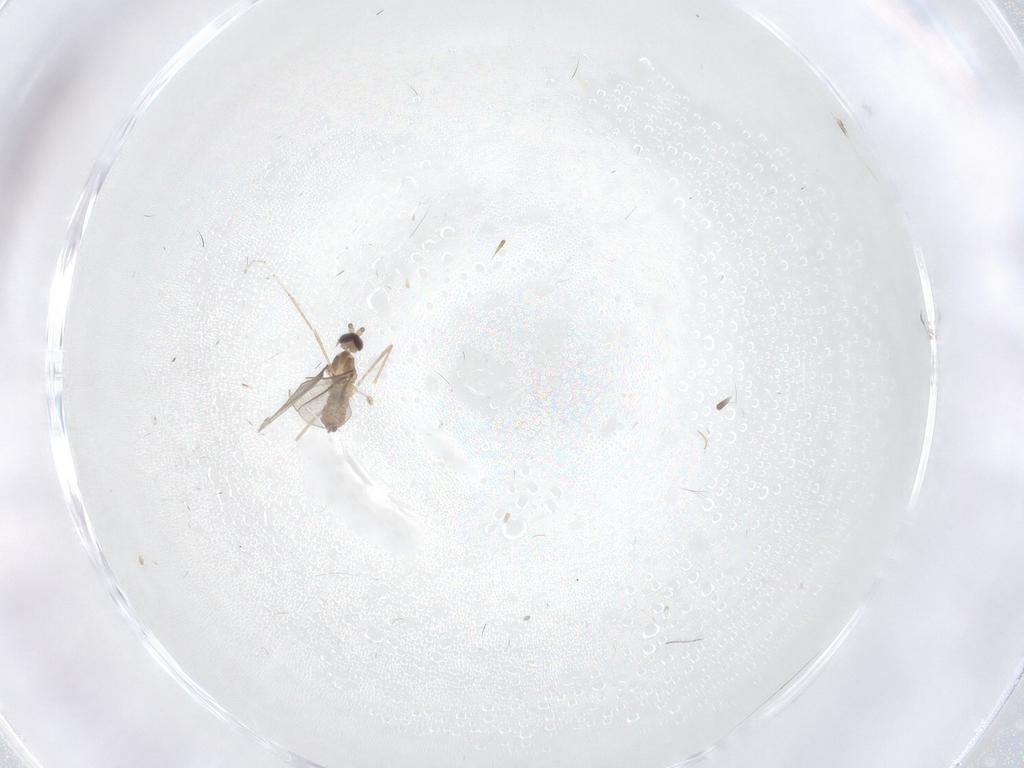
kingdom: Animalia
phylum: Arthropoda
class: Insecta
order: Diptera
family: Cecidomyiidae
